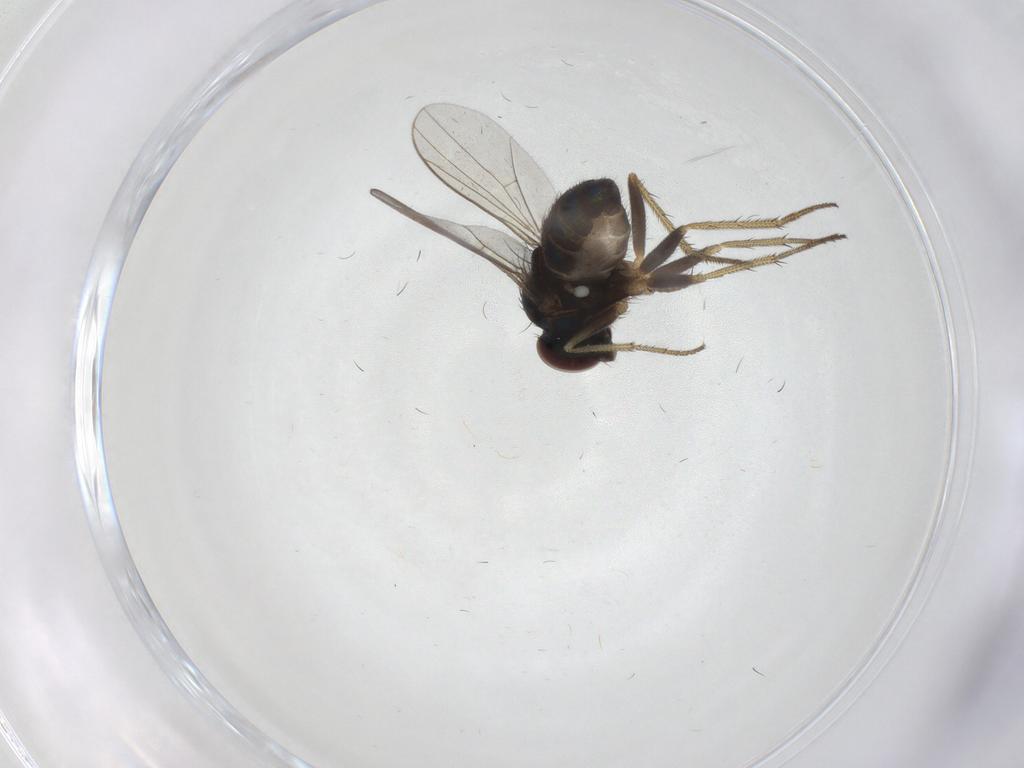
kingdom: Animalia
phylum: Arthropoda
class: Insecta
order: Diptera
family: Dolichopodidae
